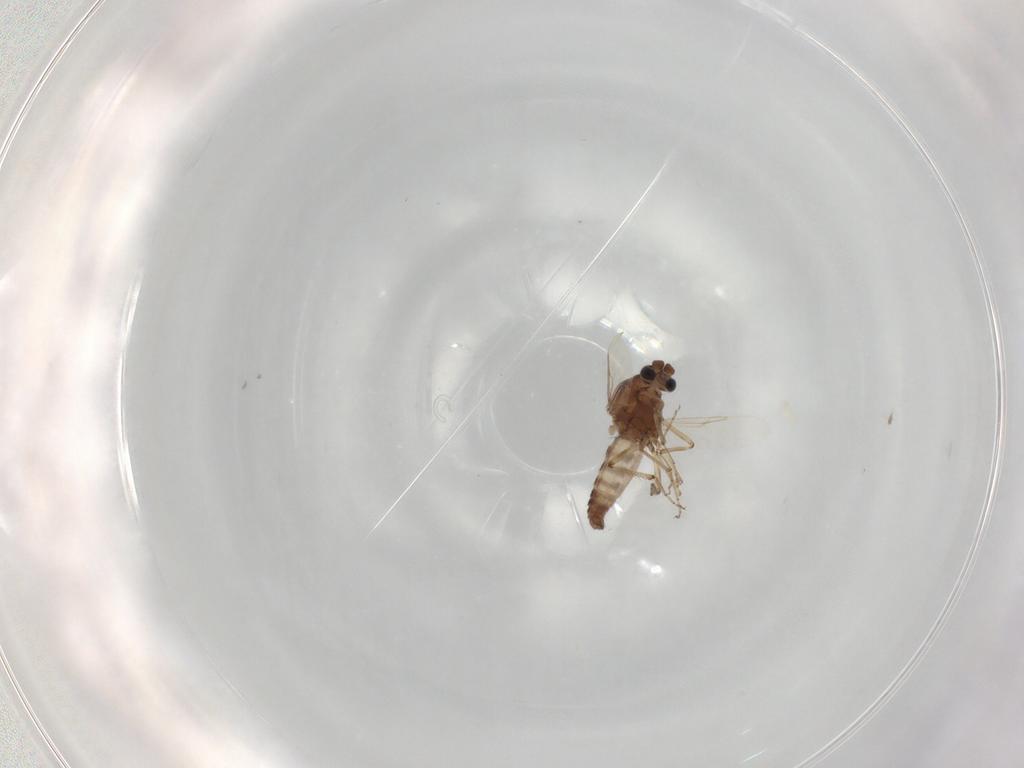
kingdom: Animalia
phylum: Arthropoda
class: Insecta
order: Diptera
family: Ceratopogonidae
